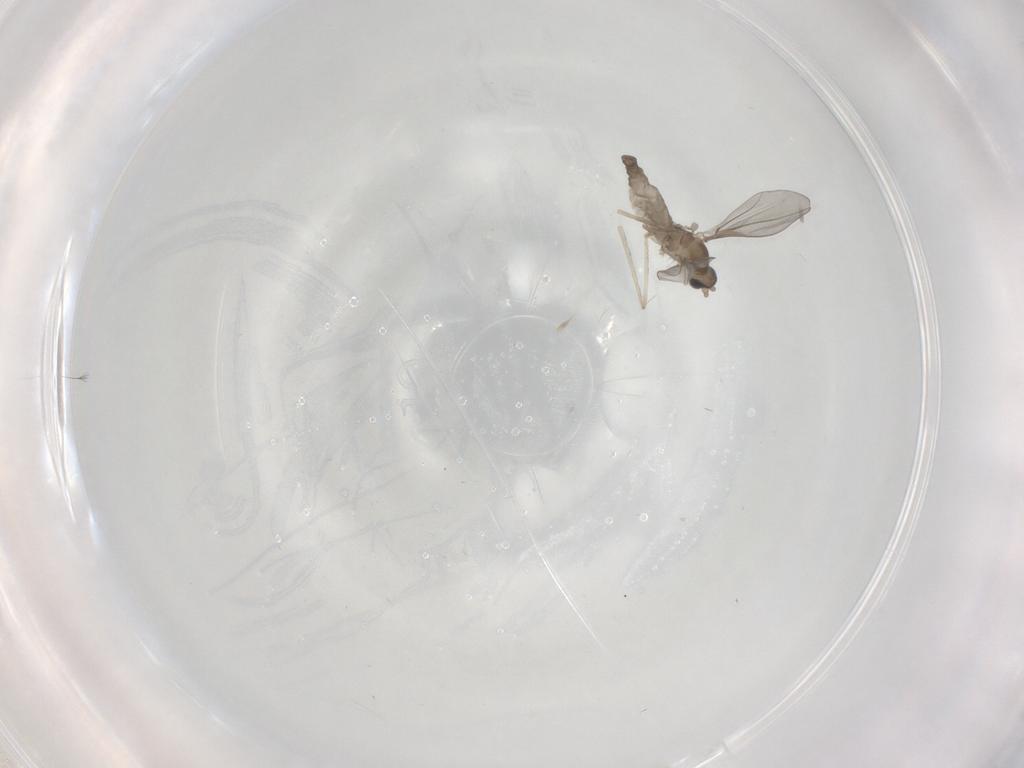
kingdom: Animalia
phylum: Arthropoda
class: Insecta
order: Diptera
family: Cecidomyiidae
